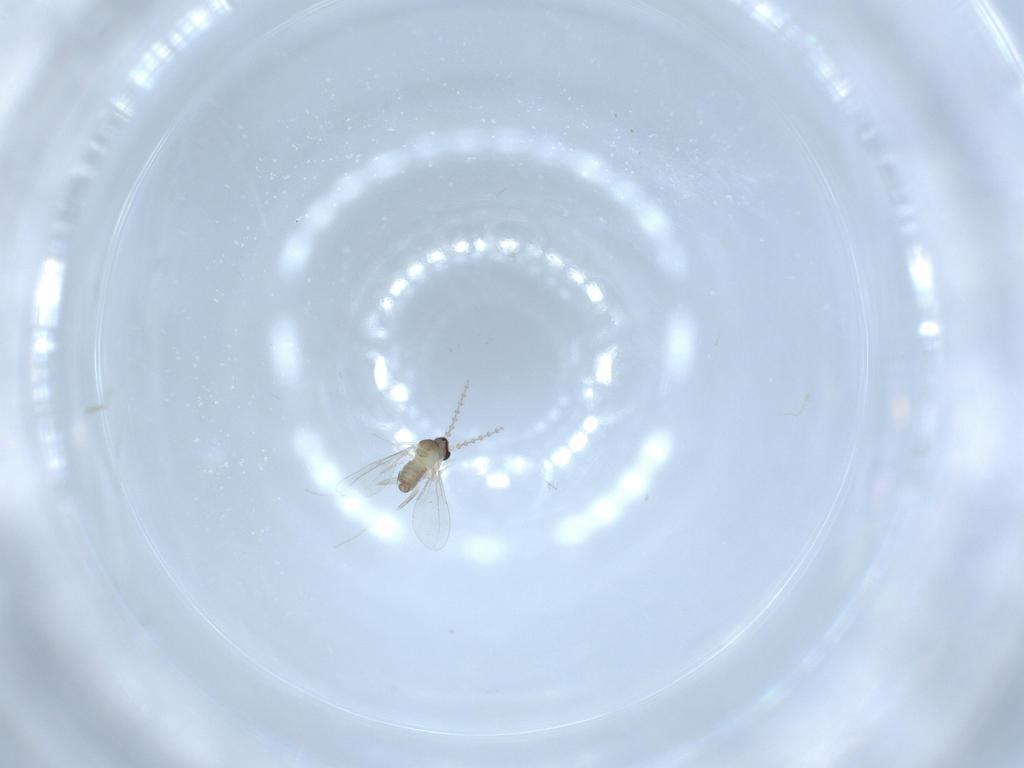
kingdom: Animalia
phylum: Arthropoda
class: Insecta
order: Diptera
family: Cecidomyiidae
